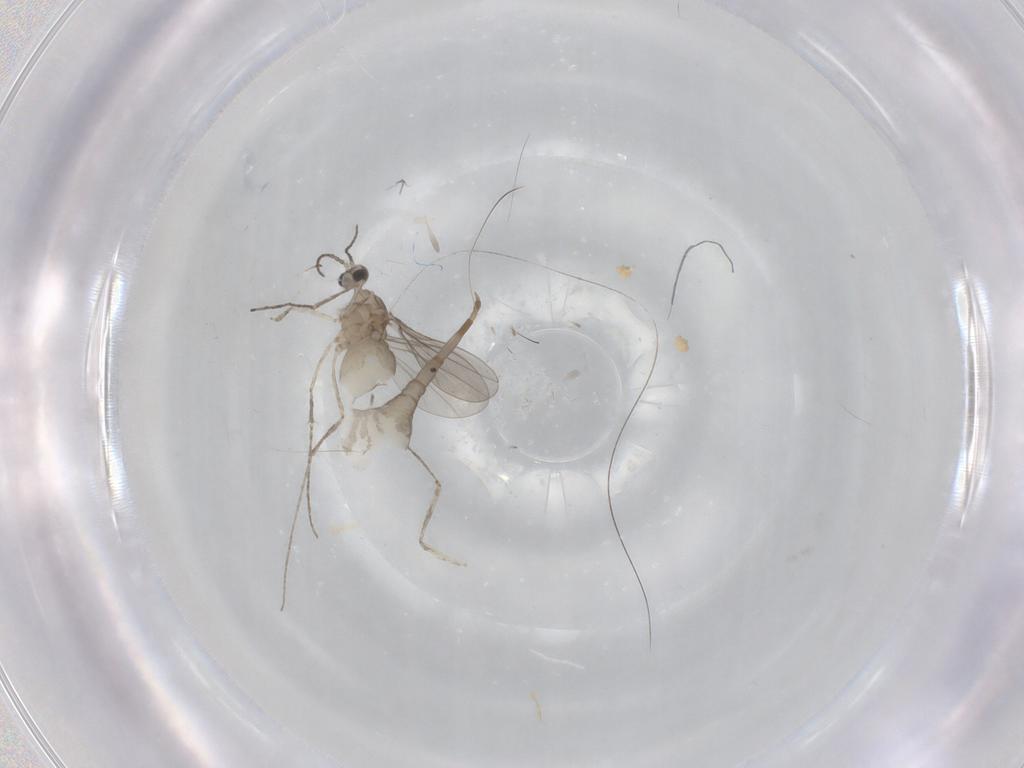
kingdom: Animalia
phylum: Arthropoda
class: Insecta
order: Diptera
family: Cecidomyiidae
